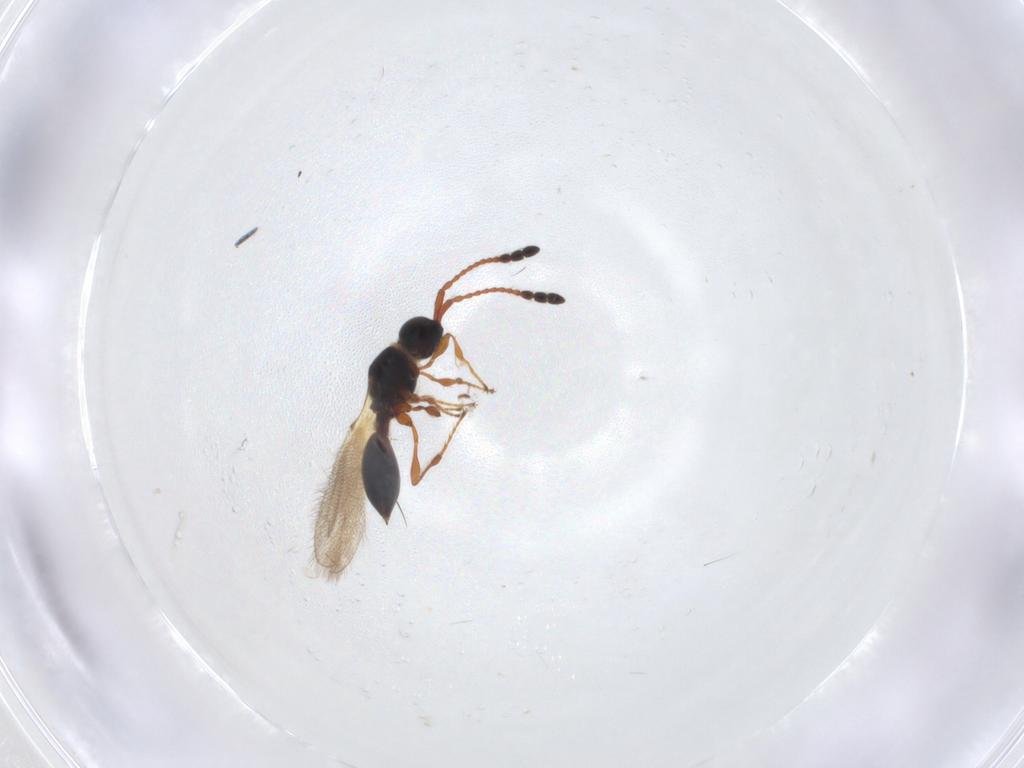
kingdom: Animalia
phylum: Arthropoda
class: Insecta
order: Hymenoptera
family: Diapriidae
